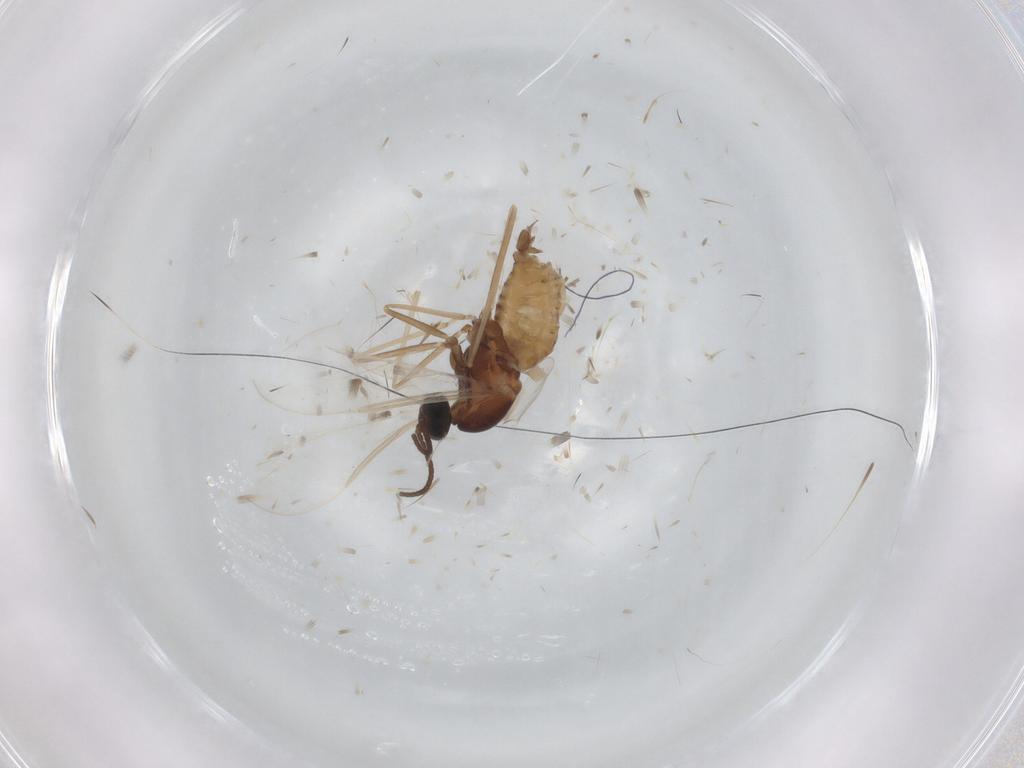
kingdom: Animalia
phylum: Arthropoda
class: Insecta
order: Diptera
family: Cecidomyiidae
